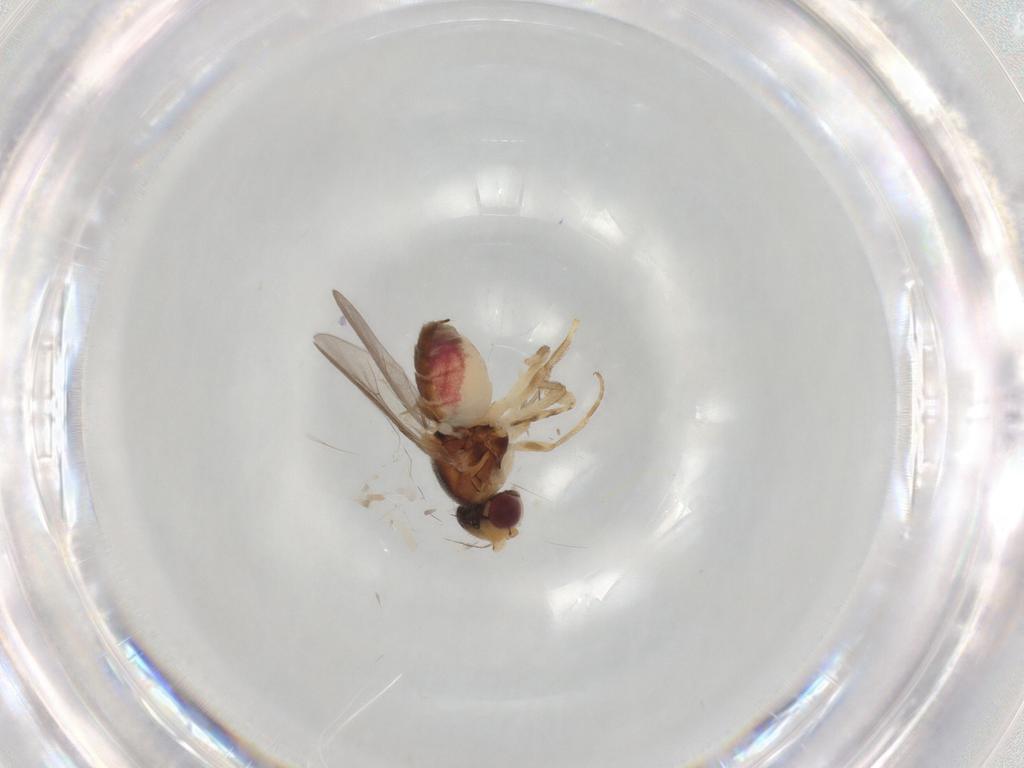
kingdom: Animalia
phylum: Arthropoda
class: Insecta
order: Diptera
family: Chloropidae
